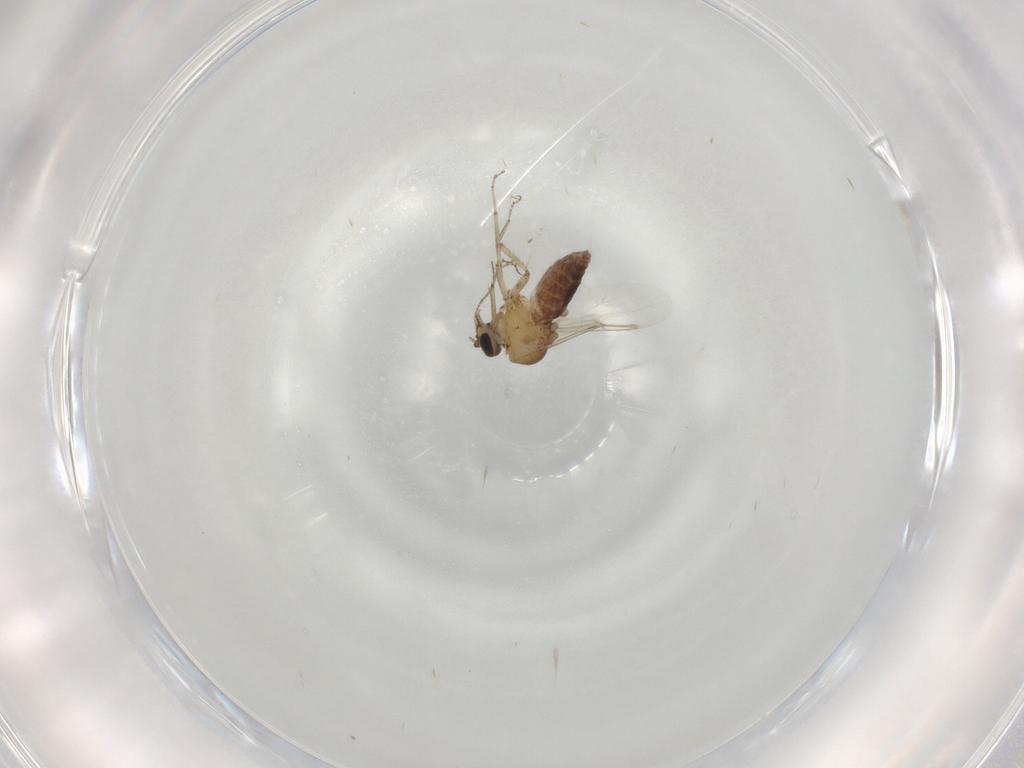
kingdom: Animalia
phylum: Arthropoda
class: Insecta
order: Diptera
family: Ceratopogonidae
